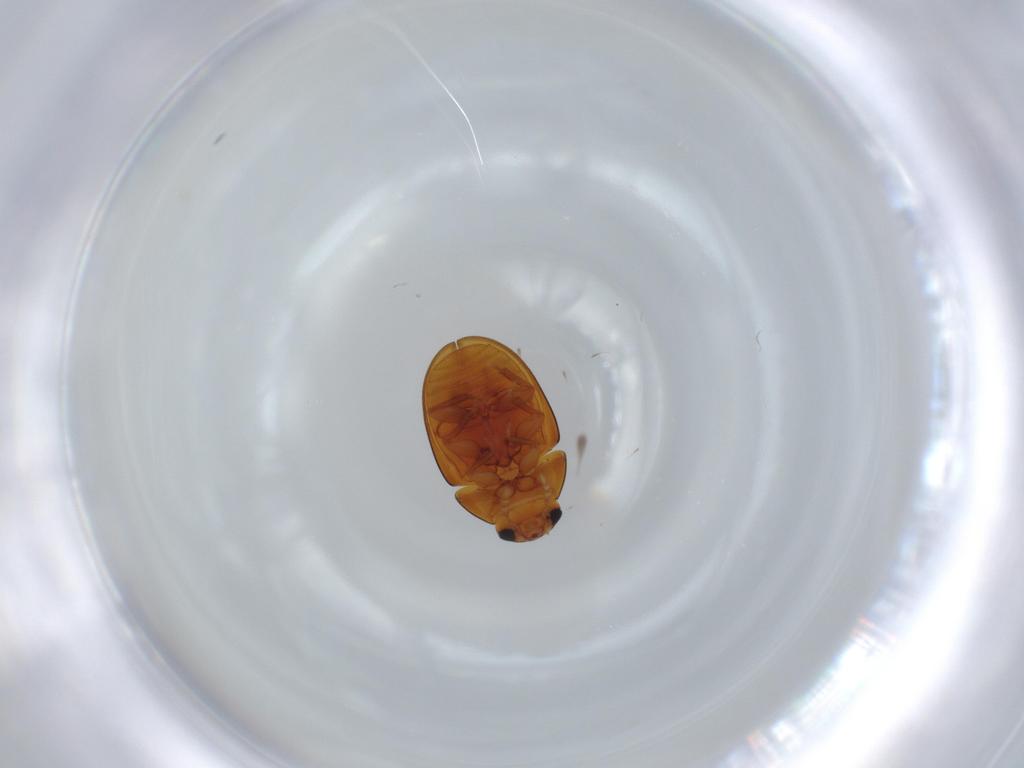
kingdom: Animalia
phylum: Arthropoda
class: Insecta
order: Coleoptera
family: Phalacridae
